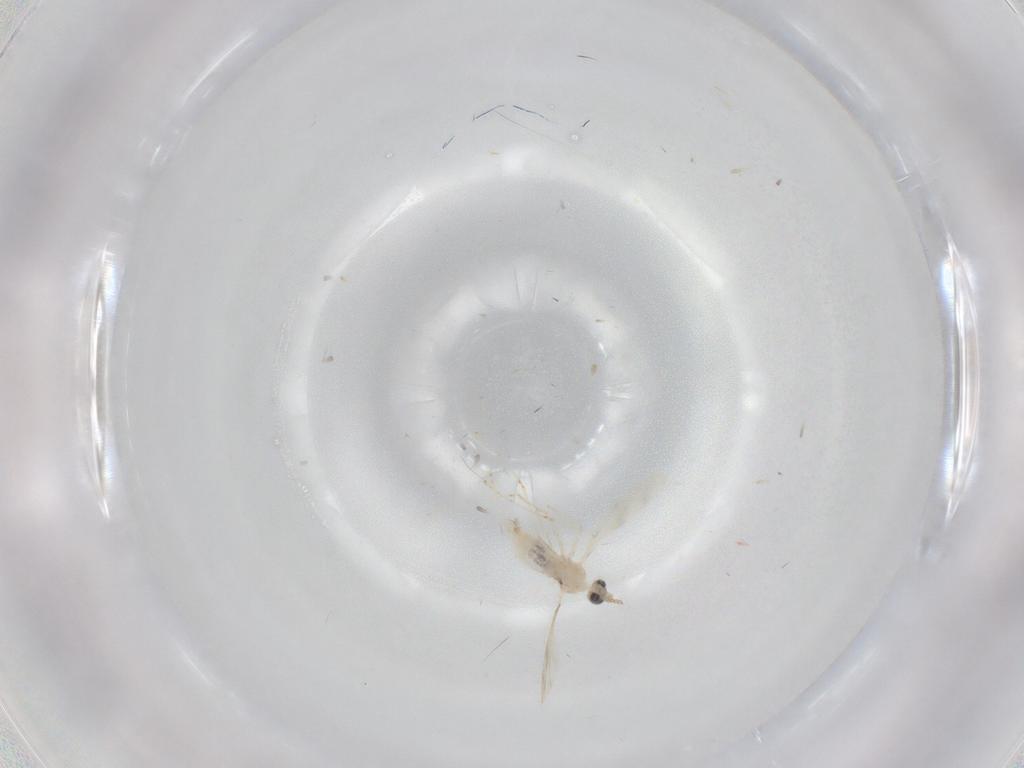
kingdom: Animalia
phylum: Arthropoda
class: Insecta
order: Diptera
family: Cecidomyiidae
